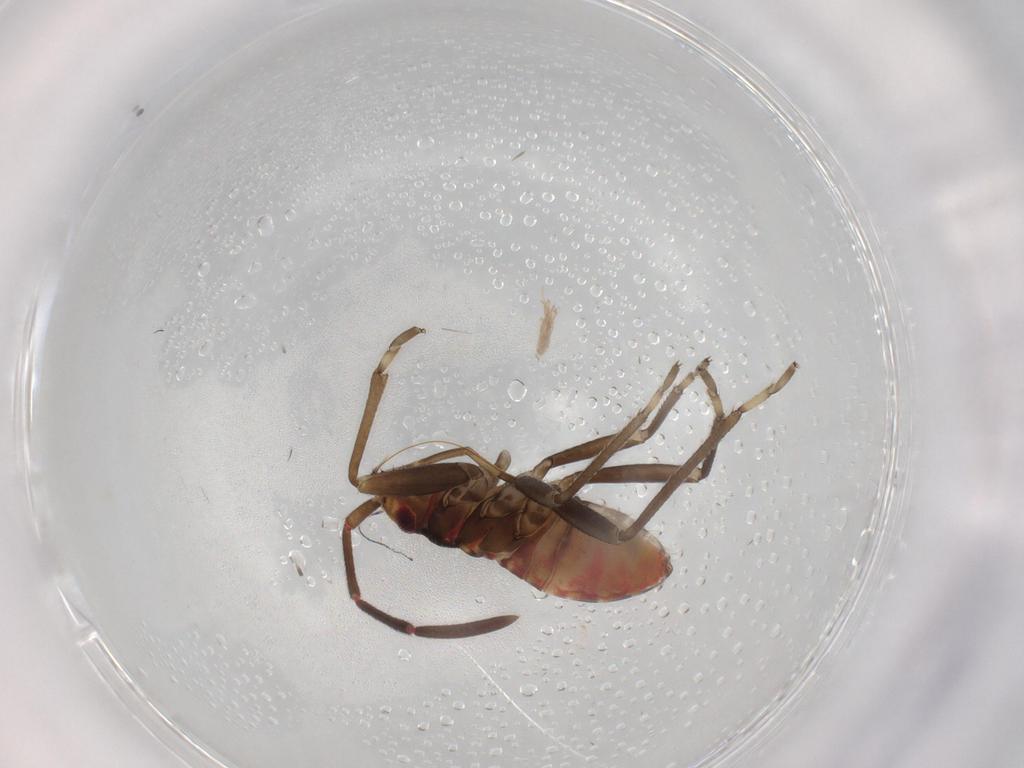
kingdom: Animalia
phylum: Arthropoda
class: Insecta
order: Hemiptera
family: Rhyparochromidae
